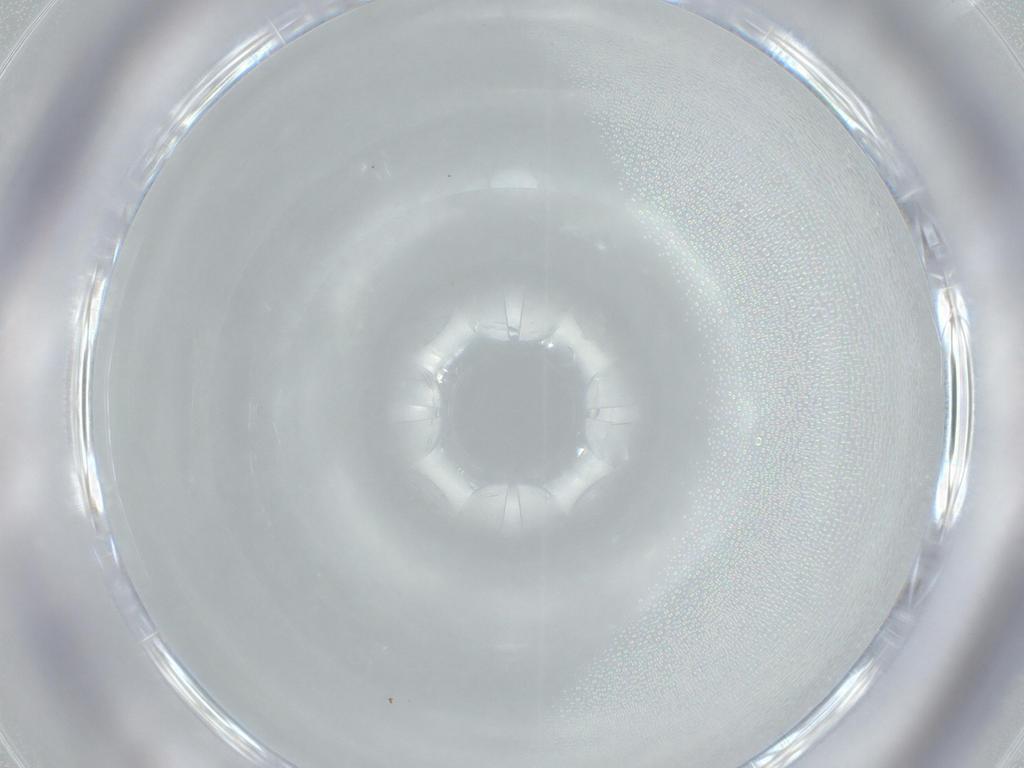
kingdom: Animalia
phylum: Arthropoda
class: Insecta
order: Diptera
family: Cecidomyiidae
